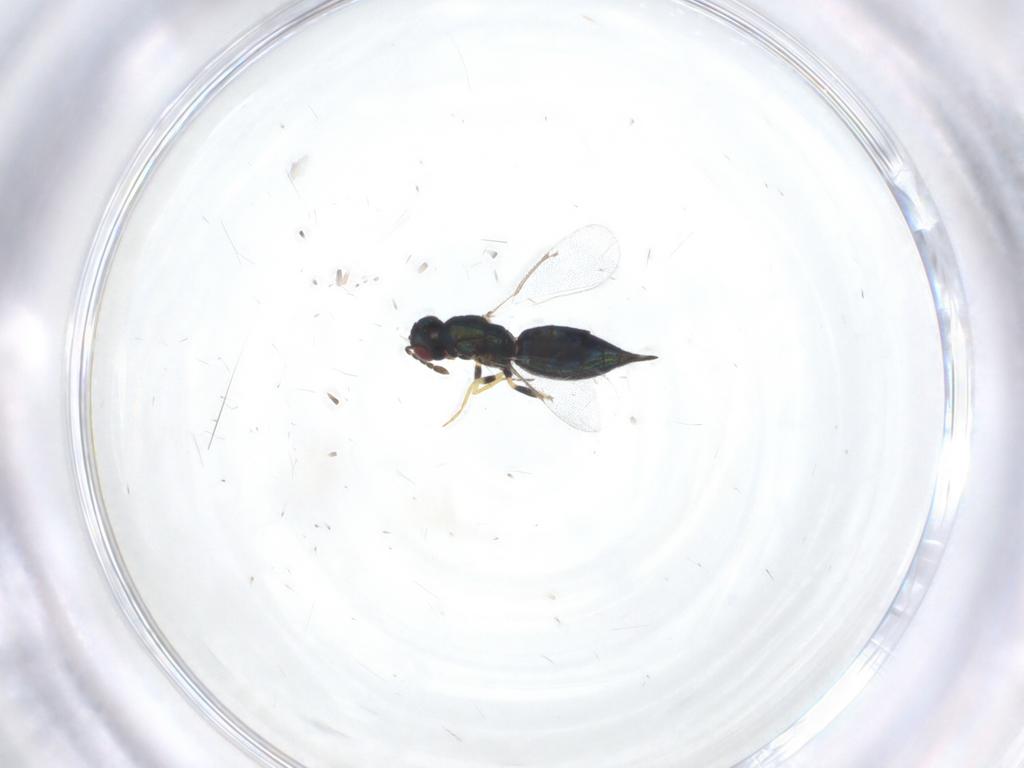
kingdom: Animalia
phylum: Arthropoda
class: Insecta
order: Hymenoptera
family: Eulophidae
